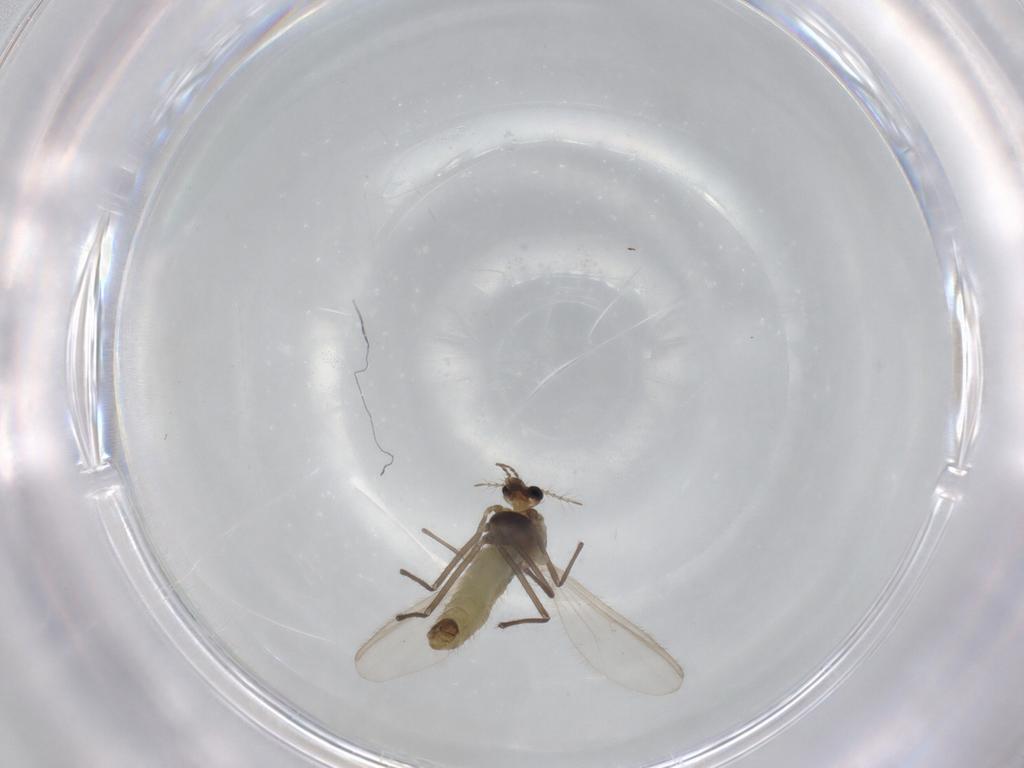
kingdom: Animalia
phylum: Arthropoda
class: Insecta
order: Diptera
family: Chironomidae
